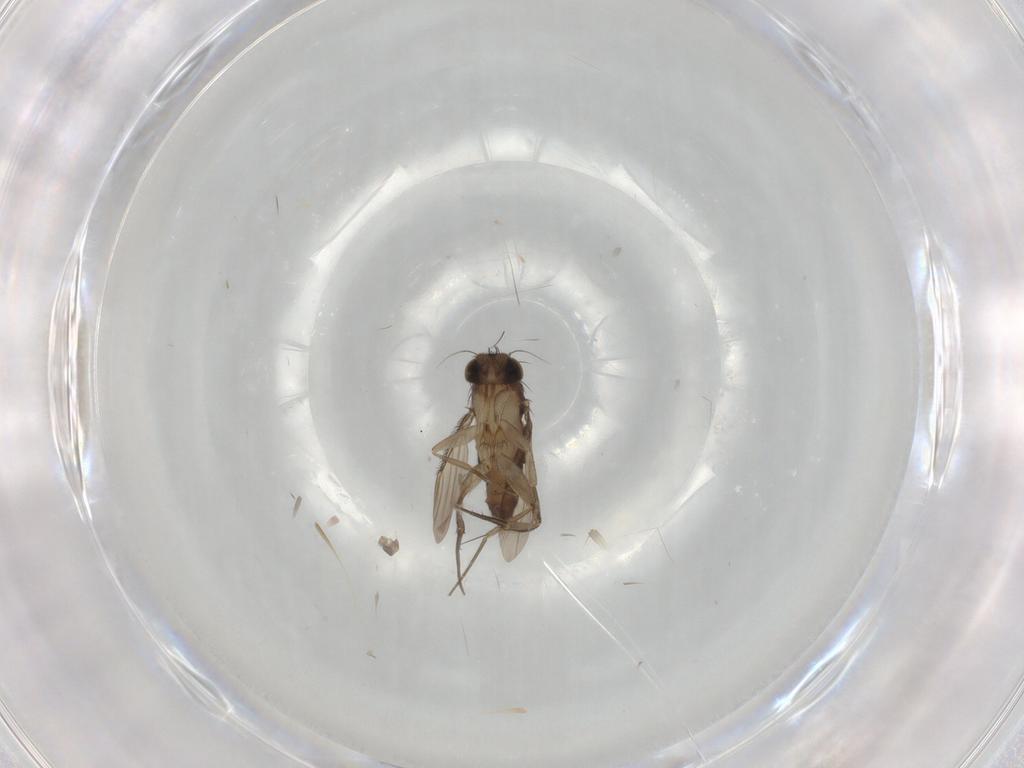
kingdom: Animalia
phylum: Arthropoda
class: Insecta
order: Diptera
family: Phoridae
